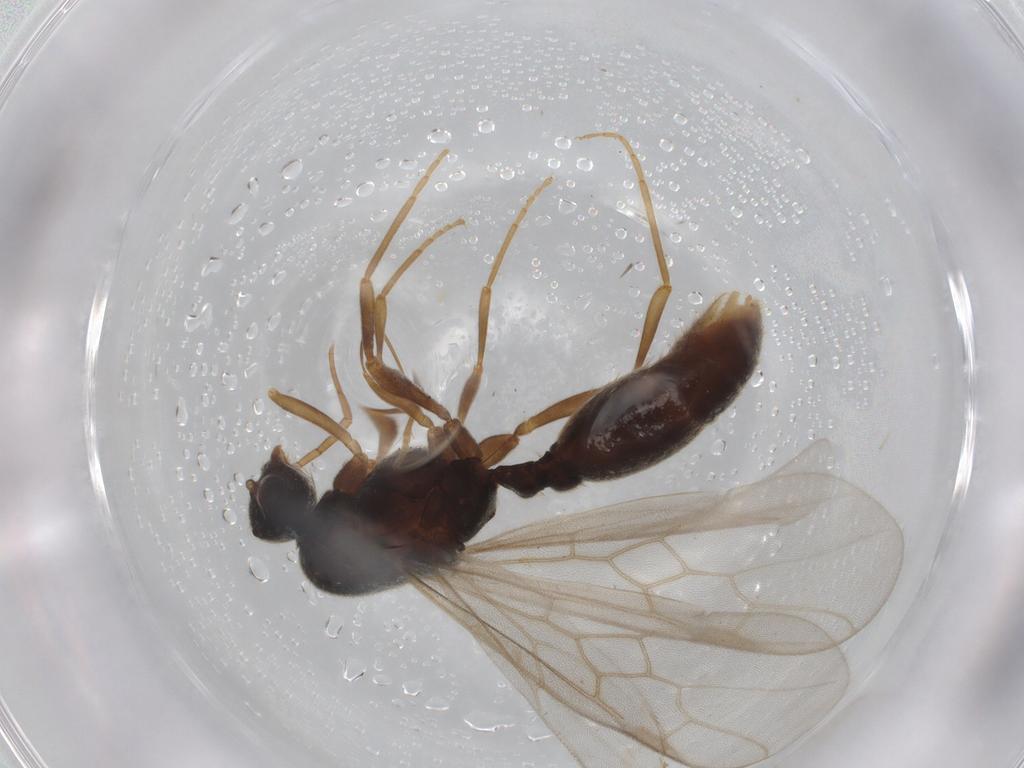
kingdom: Animalia
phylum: Arthropoda
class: Insecta
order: Hymenoptera
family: Formicidae
